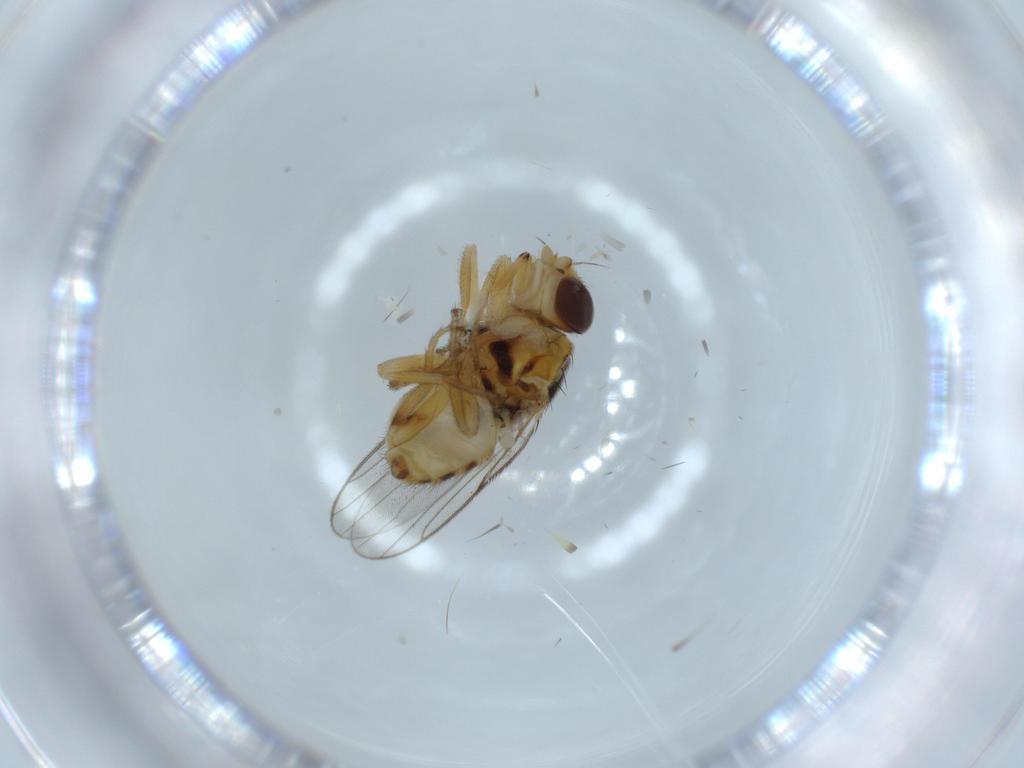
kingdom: Animalia
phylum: Arthropoda
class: Insecta
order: Diptera
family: Chloropidae
